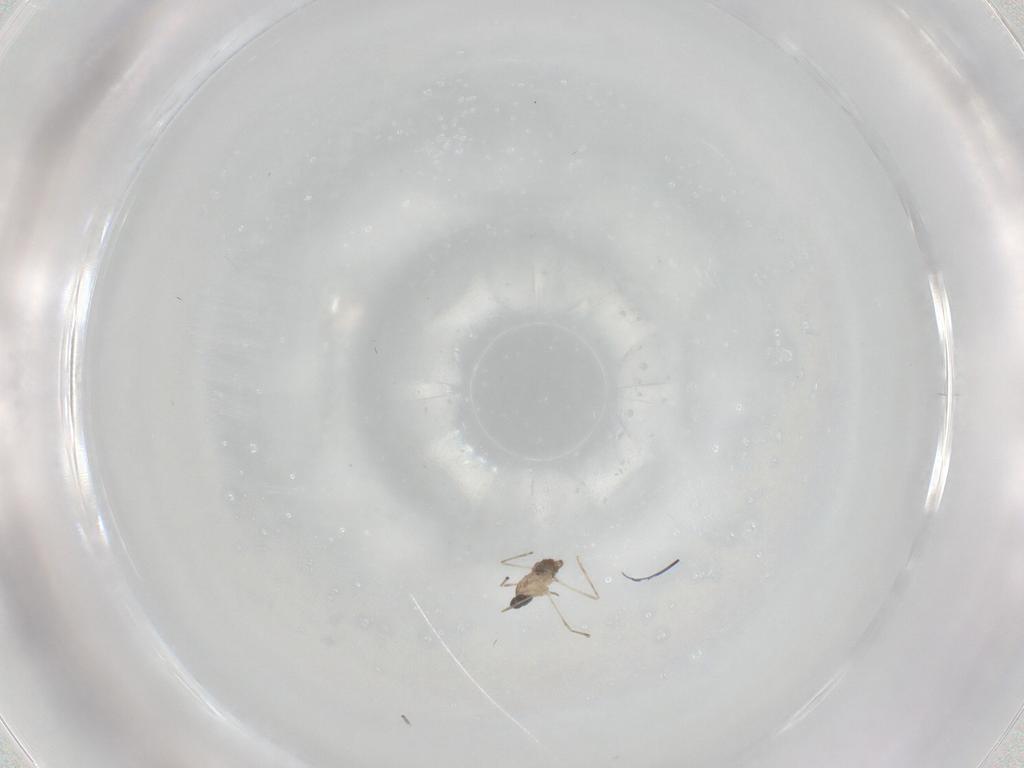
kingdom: Animalia
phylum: Arthropoda
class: Insecta
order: Diptera
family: Cecidomyiidae
